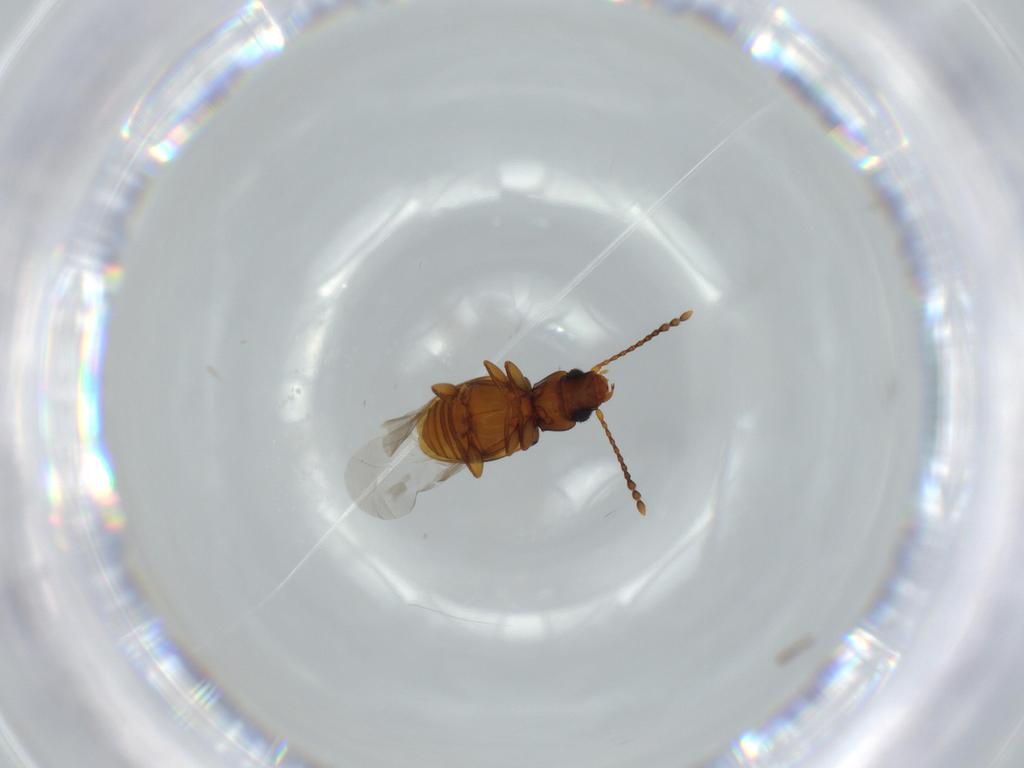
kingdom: Animalia
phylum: Arthropoda
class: Insecta
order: Coleoptera
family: Laemophloeidae
